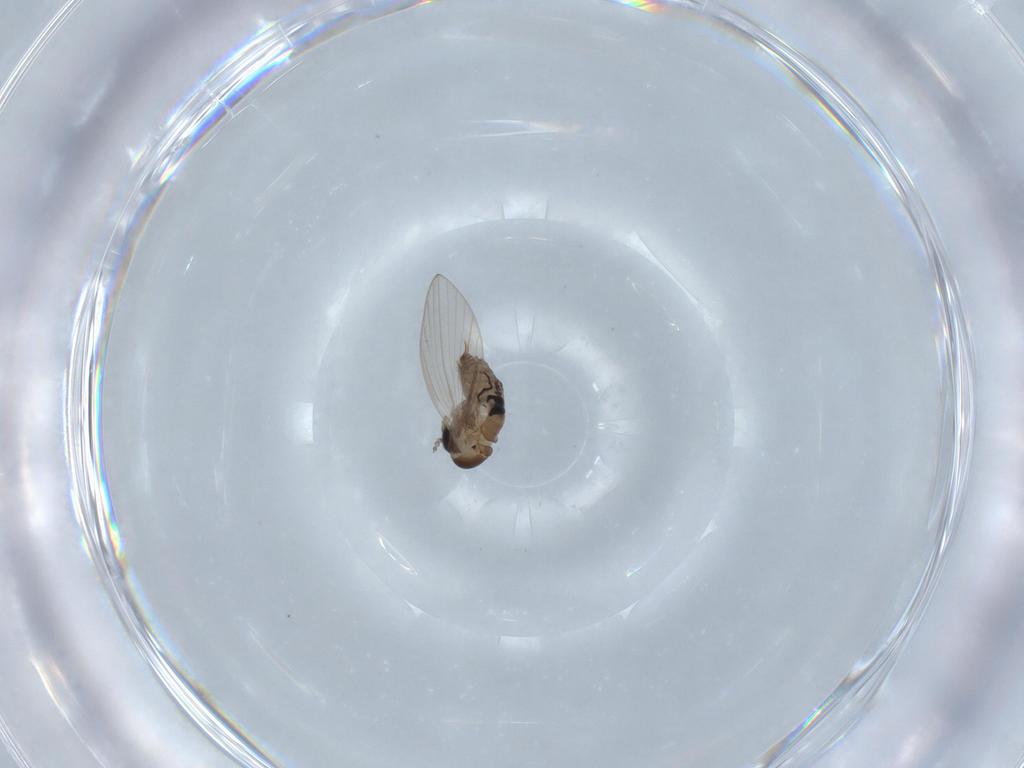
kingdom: Animalia
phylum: Arthropoda
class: Insecta
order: Diptera
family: Psychodidae
